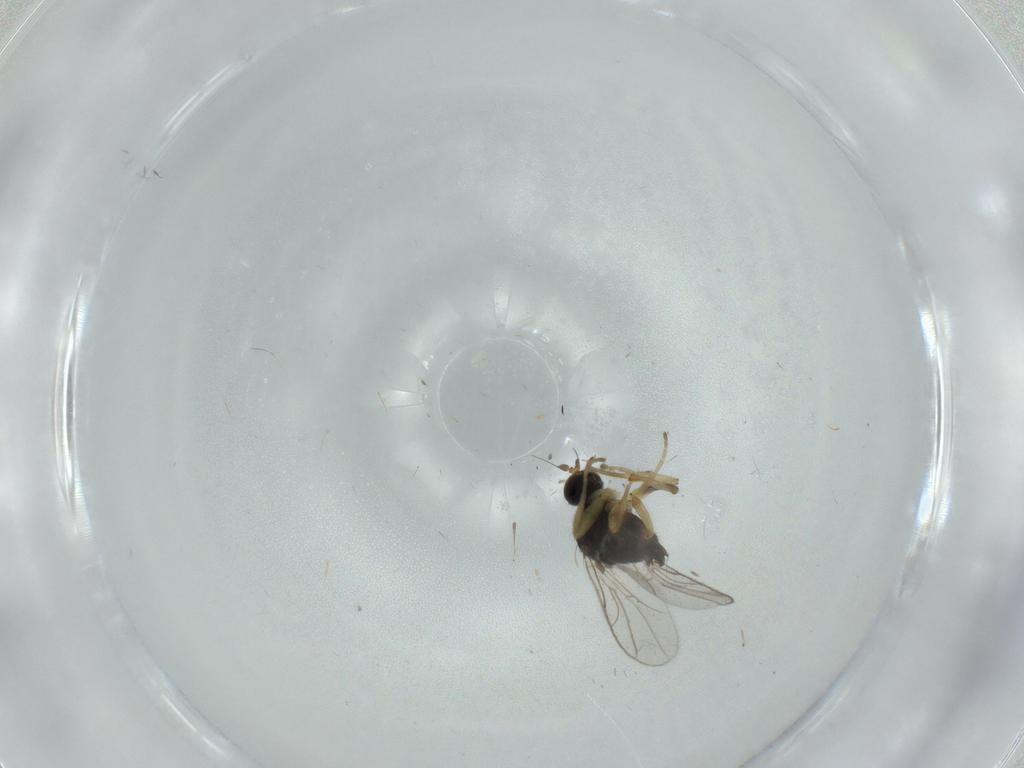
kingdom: Animalia
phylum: Arthropoda
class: Insecta
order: Diptera
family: Hybotidae
